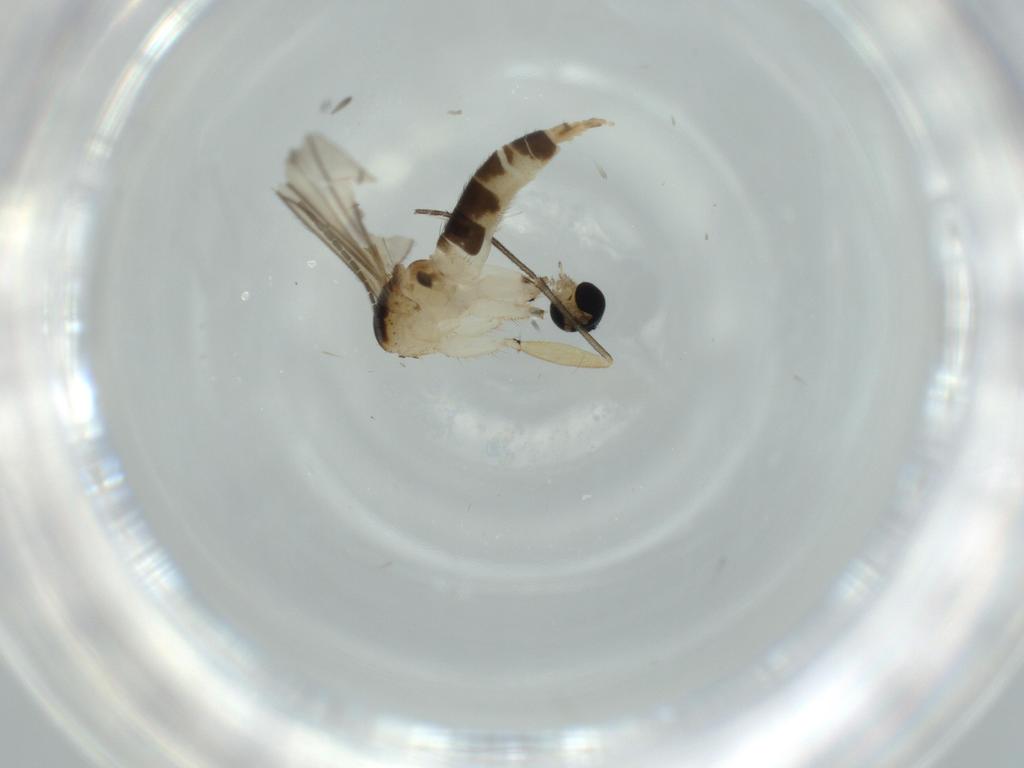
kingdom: Animalia
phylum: Arthropoda
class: Insecta
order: Diptera
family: Sciaridae
